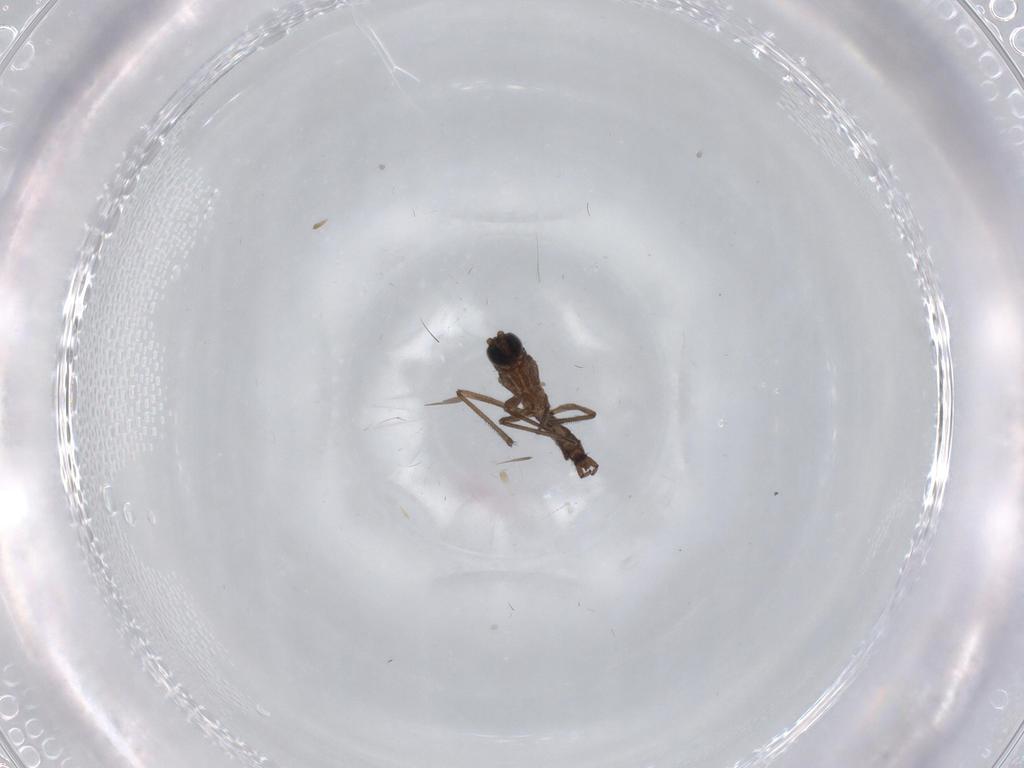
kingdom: Animalia
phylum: Arthropoda
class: Insecta
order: Diptera
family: Sciaridae
